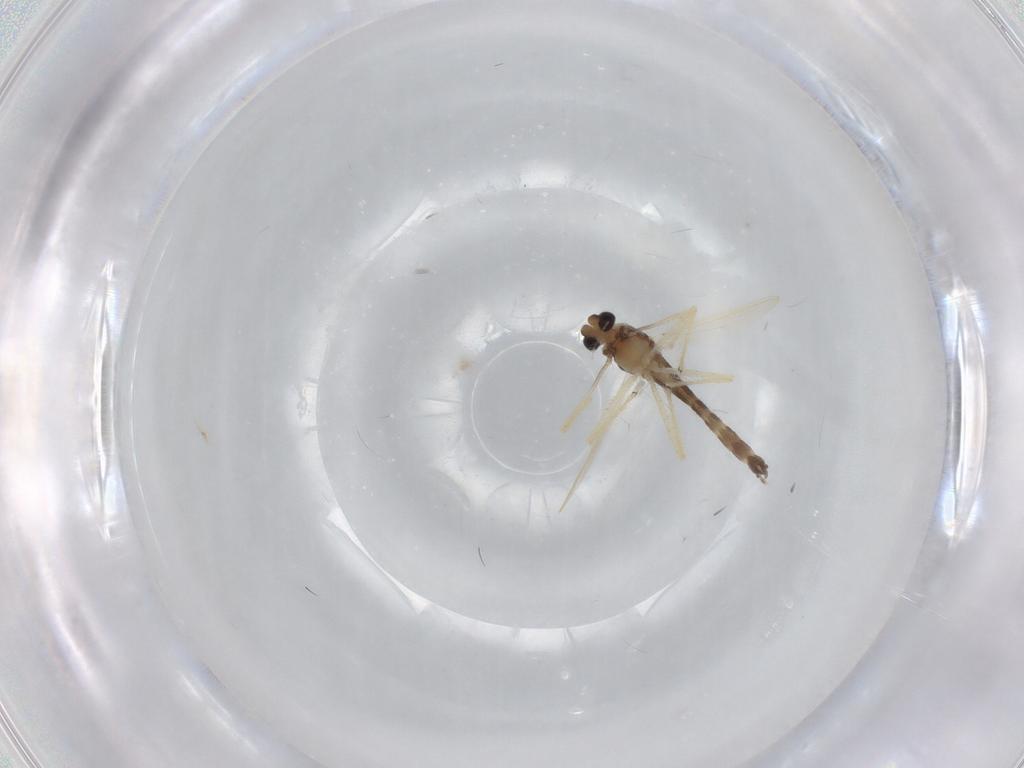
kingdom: Animalia
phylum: Arthropoda
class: Insecta
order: Diptera
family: Chironomidae
